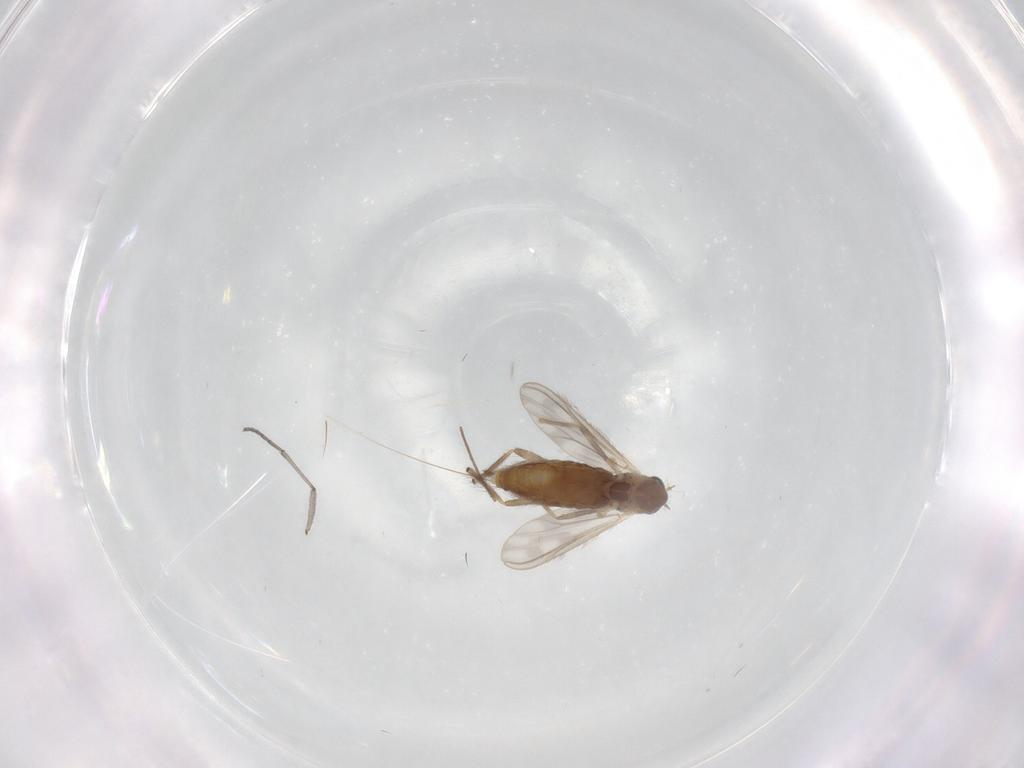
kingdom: Animalia
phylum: Arthropoda
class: Insecta
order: Diptera
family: Chironomidae
